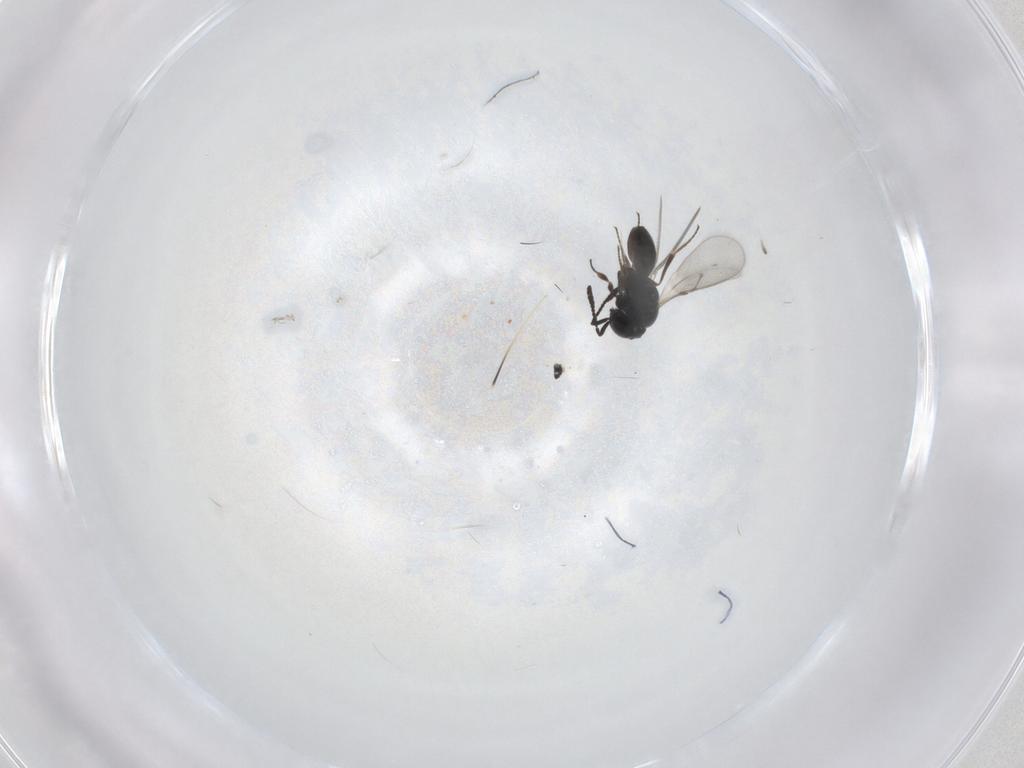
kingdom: Animalia
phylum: Arthropoda
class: Insecta
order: Hymenoptera
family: Scelionidae
